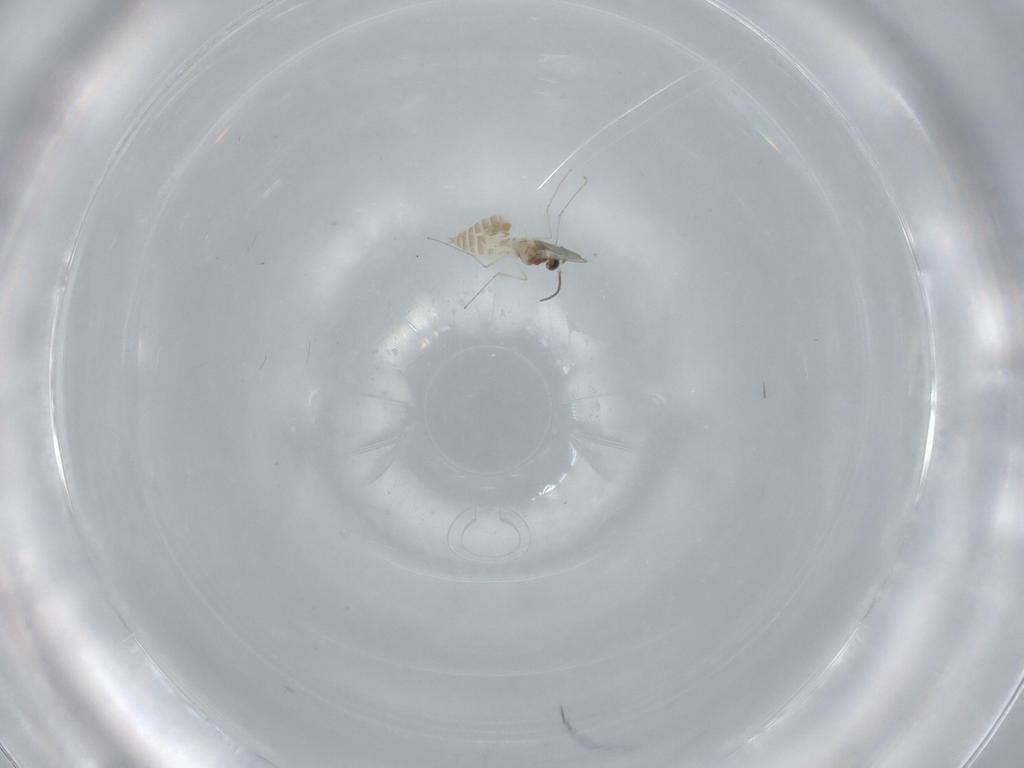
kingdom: Animalia
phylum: Arthropoda
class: Insecta
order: Diptera
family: Cecidomyiidae
